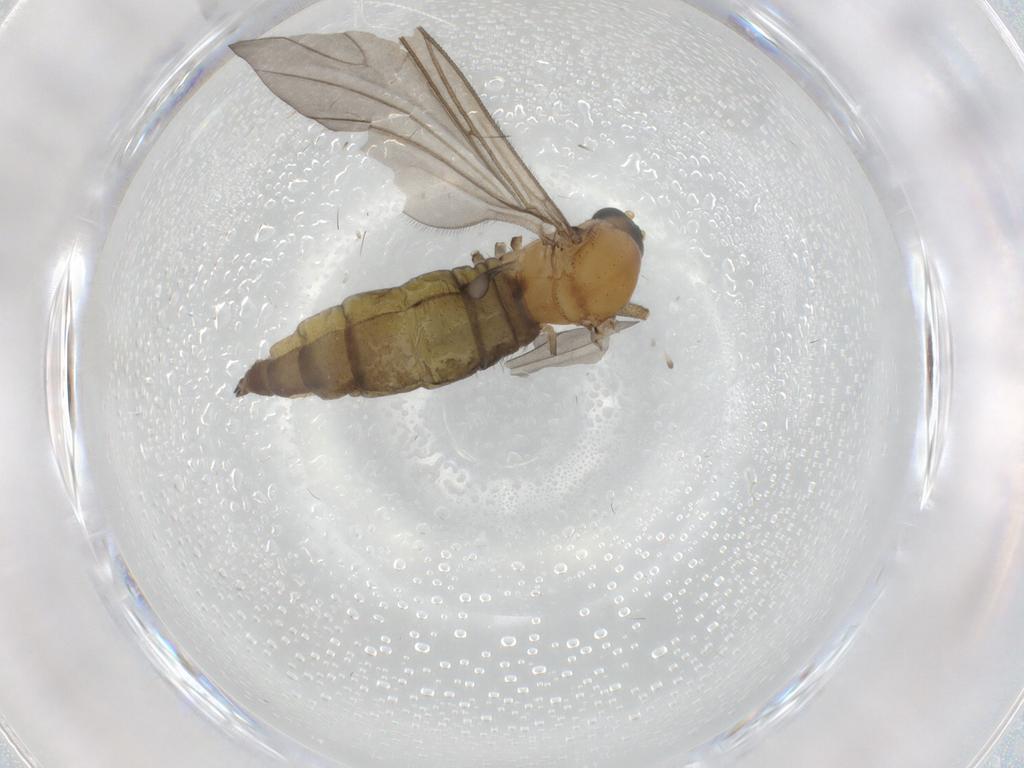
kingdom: Animalia
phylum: Arthropoda
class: Insecta
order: Diptera
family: Sciaridae
